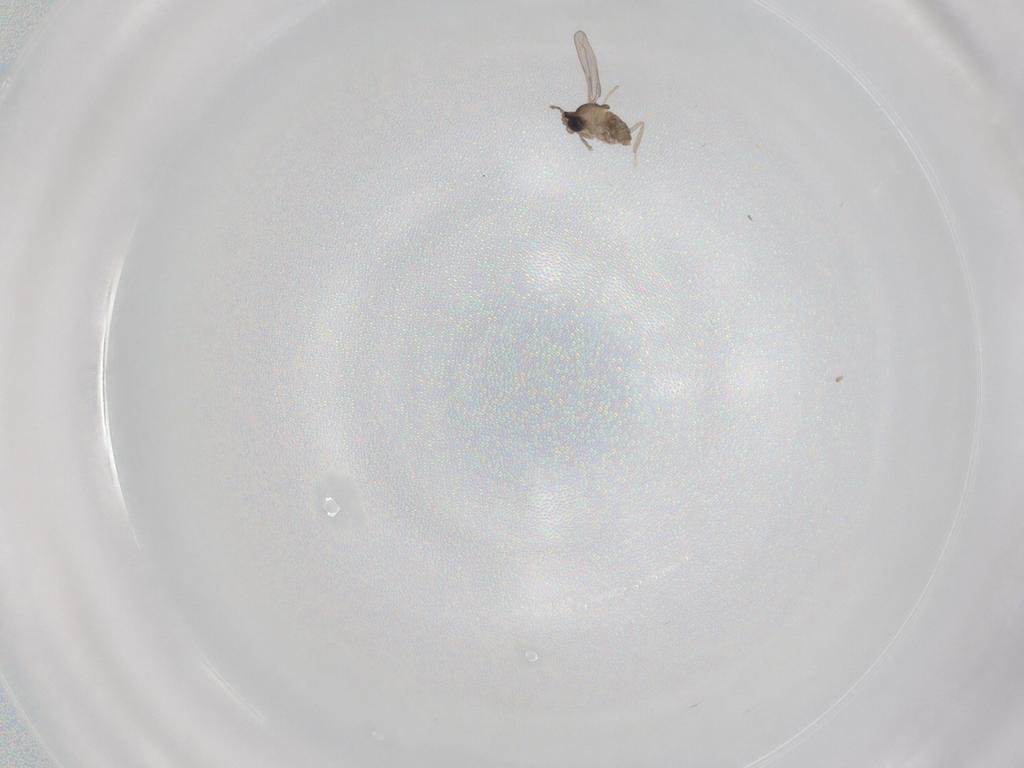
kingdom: Animalia
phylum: Arthropoda
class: Insecta
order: Diptera
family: Cecidomyiidae
